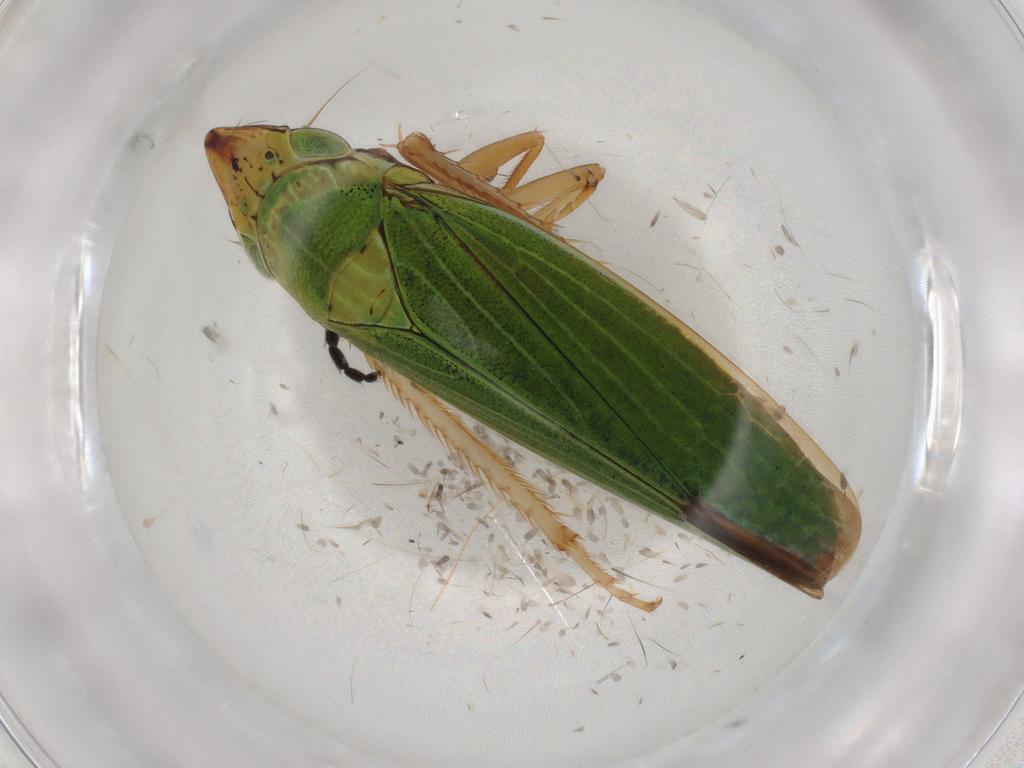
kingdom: Animalia
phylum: Arthropoda
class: Insecta
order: Hemiptera
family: Cicadellidae
